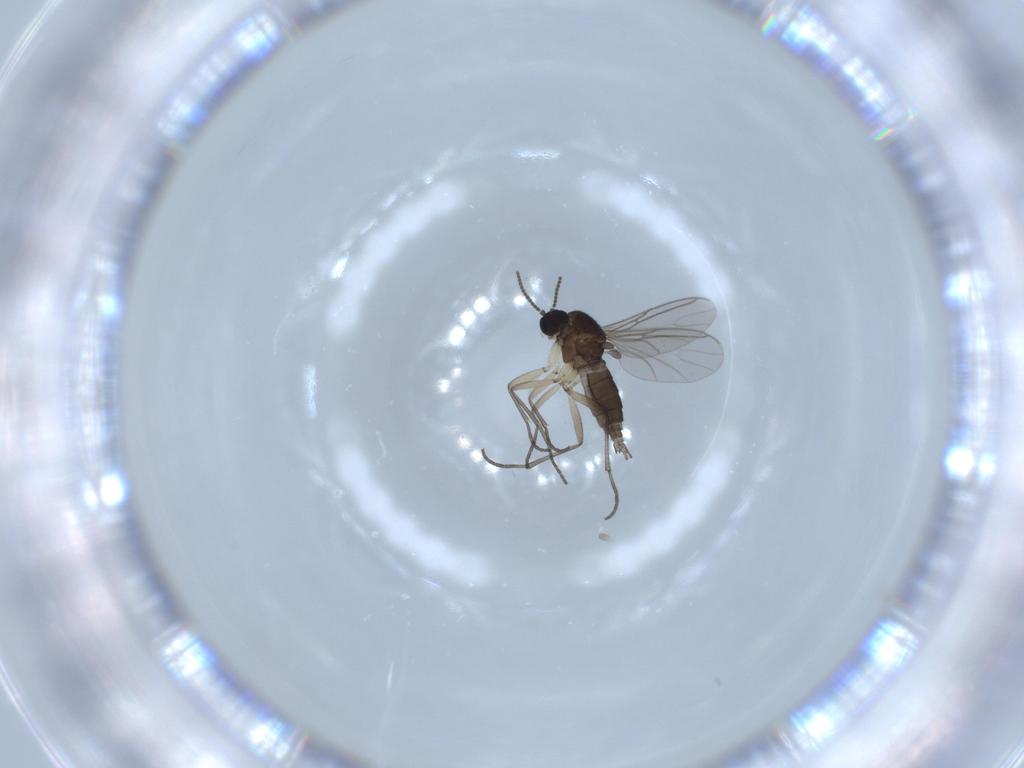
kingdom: Animalia
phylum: Arthropoda
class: Insecta
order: Diptera
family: Sciaridae
